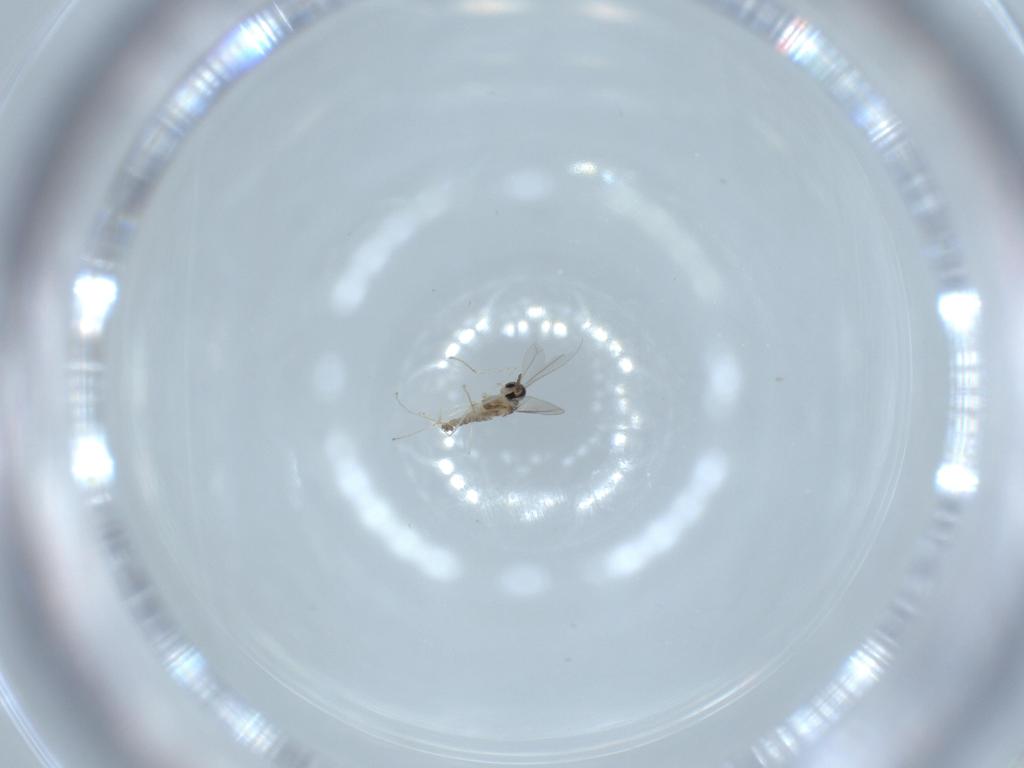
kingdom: Animalia
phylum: Arthropoda
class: Insecta
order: Diptera
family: Cecidomyiidae
